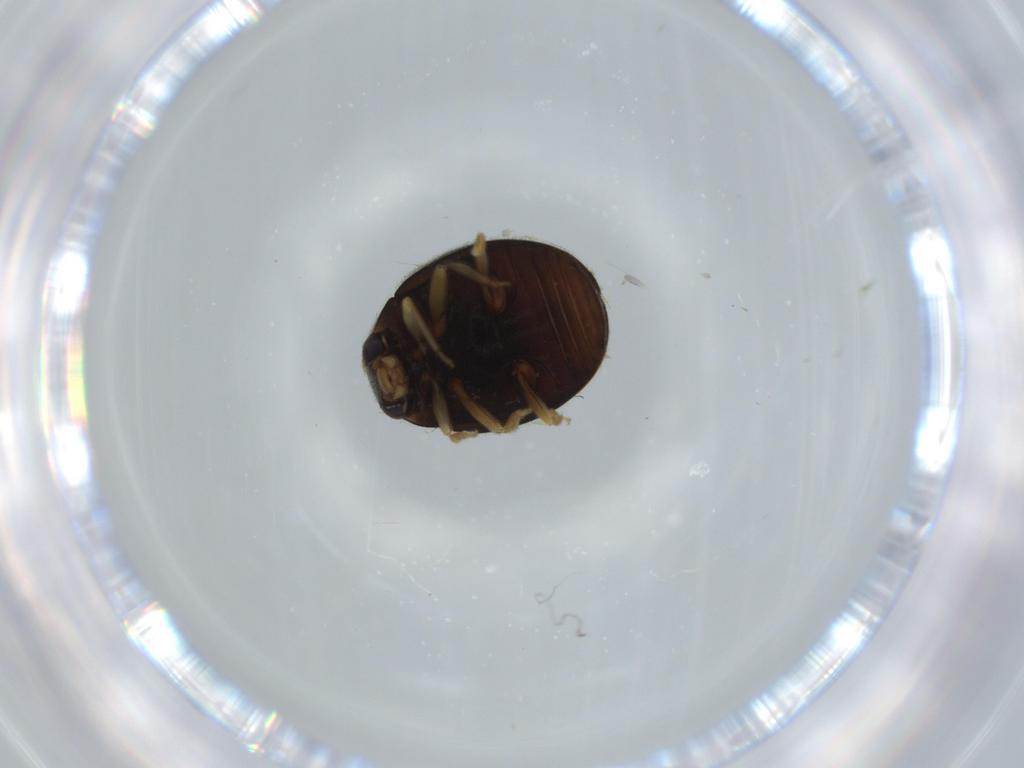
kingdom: Animalia
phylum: Arthropoda
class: Insecta
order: Coleoptera
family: Coccinellidae
